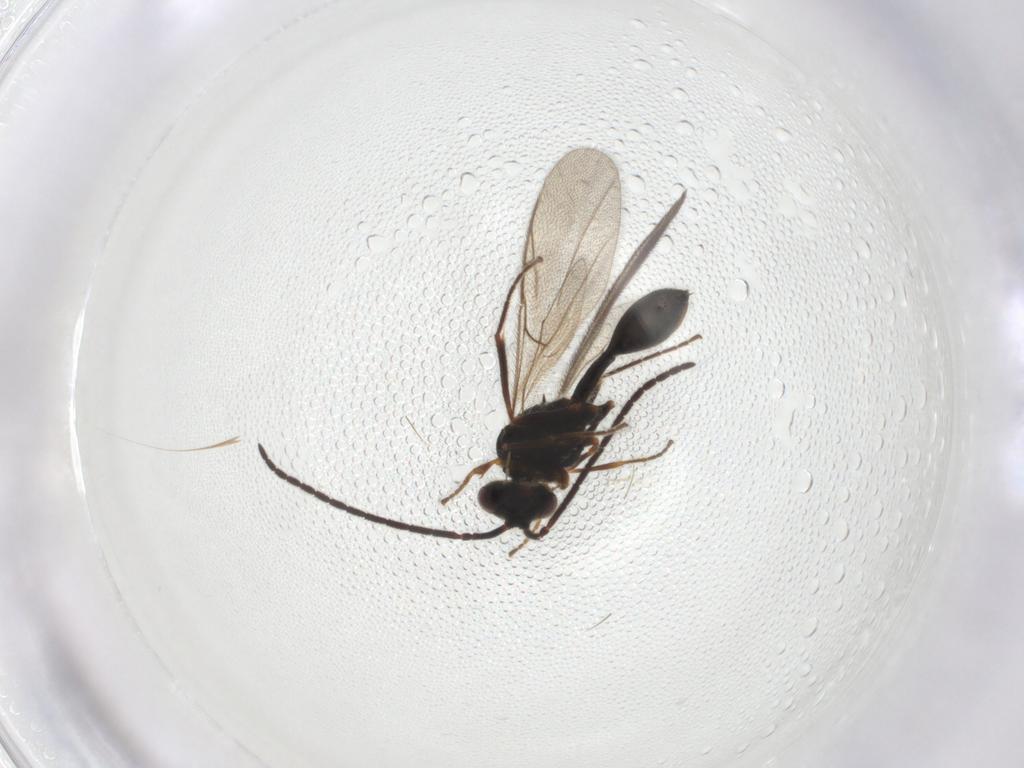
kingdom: Animalia
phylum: Arthropoda
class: Insecta
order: Hymenoptera
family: Diapriidae
